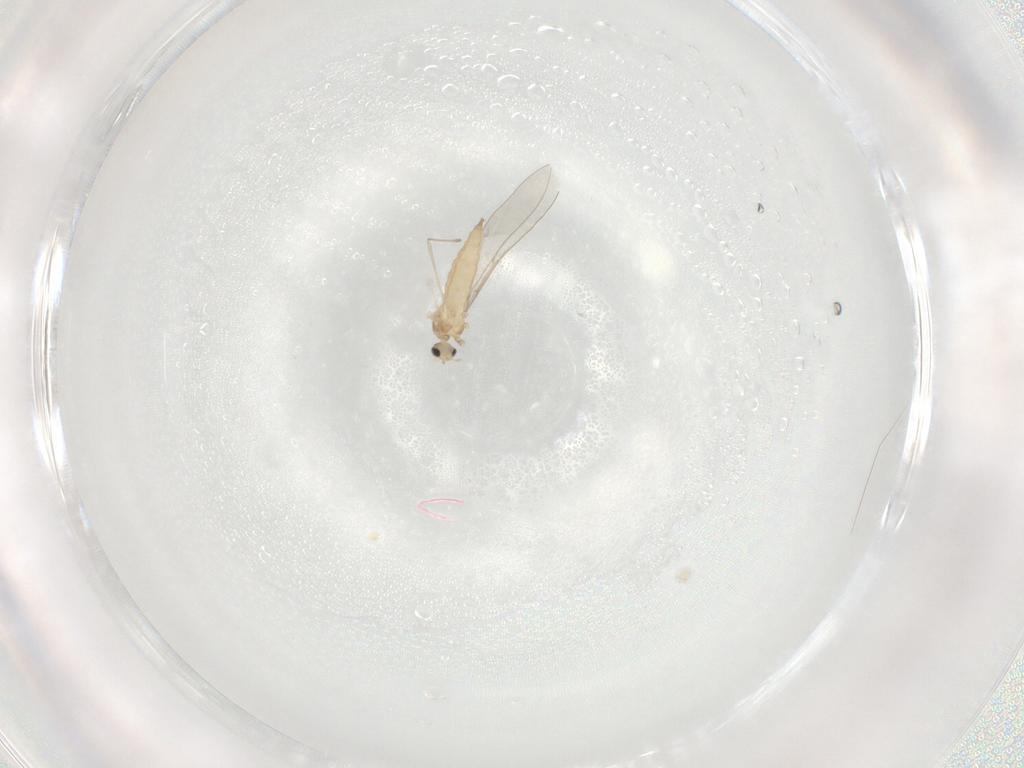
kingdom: Animalia
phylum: Arthropoda
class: Insecta
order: Diptera
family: Cecidomyiidae
